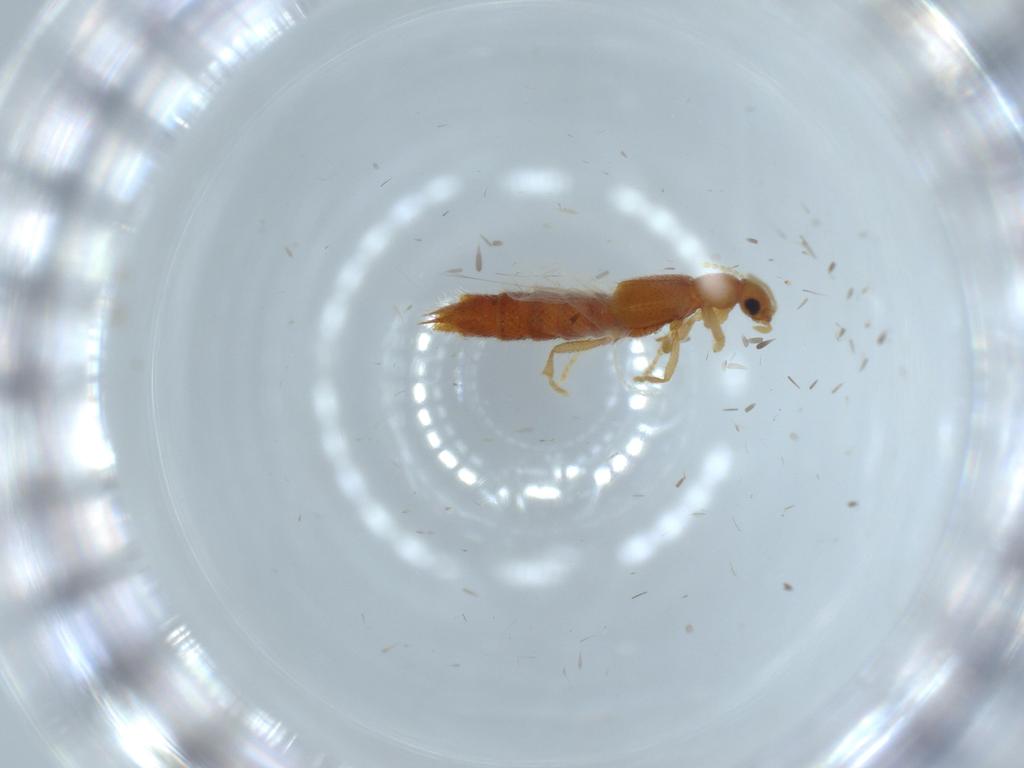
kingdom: Animalia
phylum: Arthropoda
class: Insecta
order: Coleoptera
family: Staphylinidae
